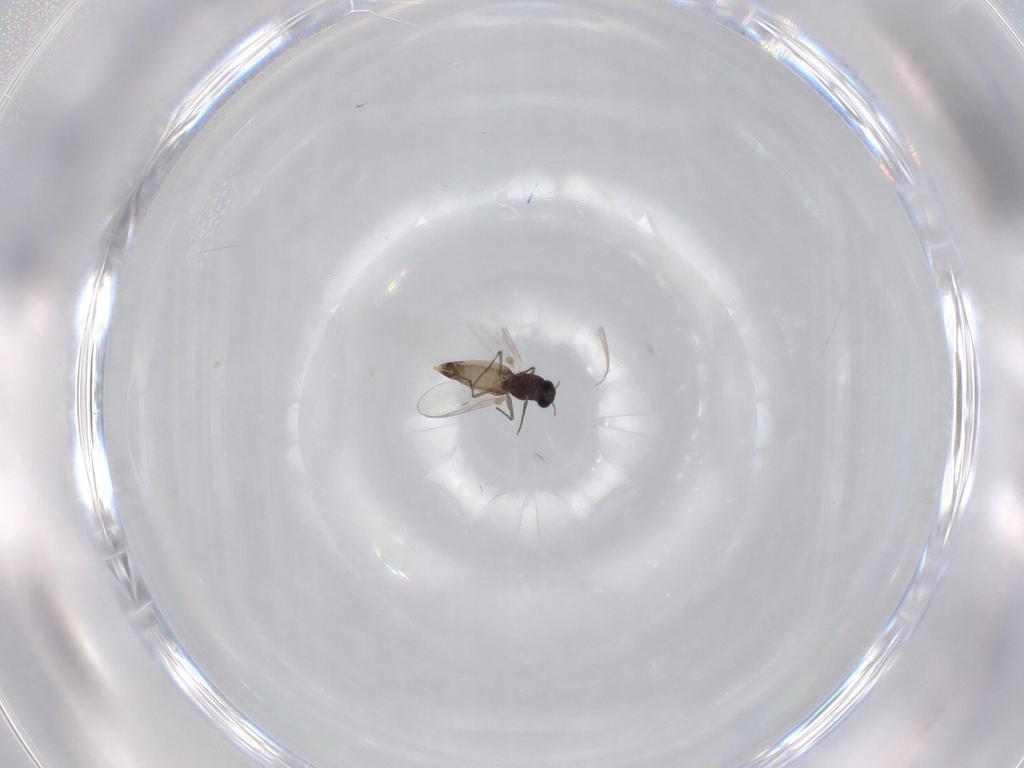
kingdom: Animalia
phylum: Arthropoda
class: Insecta
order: Diptera
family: Chironomidae
